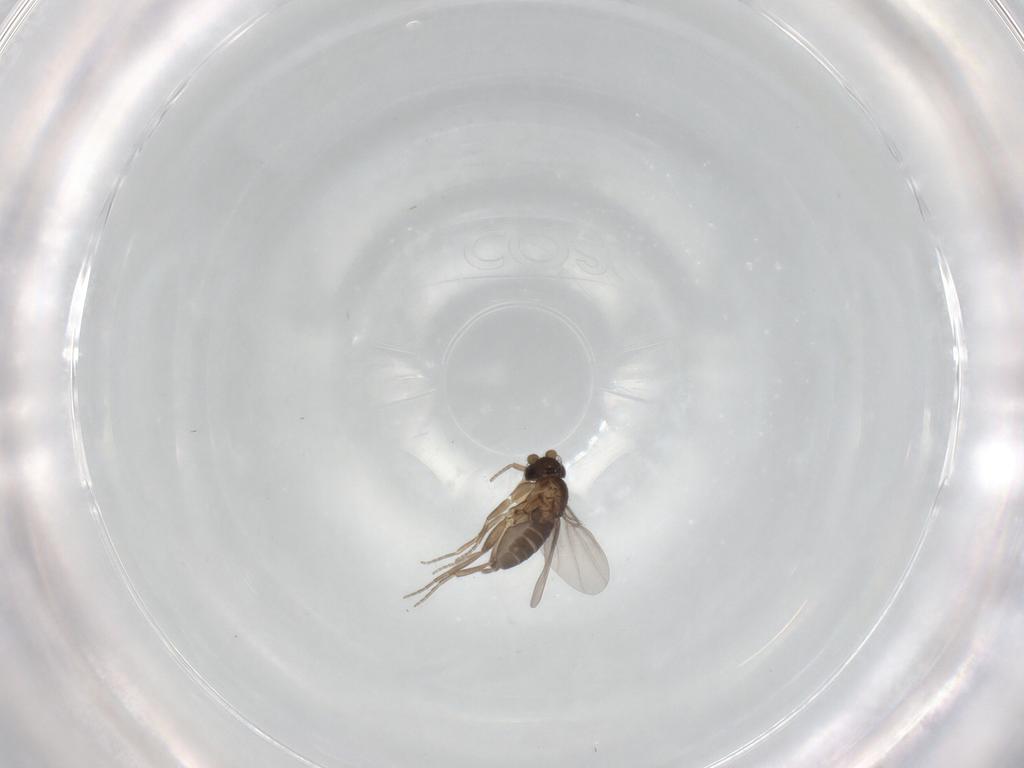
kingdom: Animalia
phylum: Arthropoda
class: Insecta
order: Diptera
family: Phoridae
